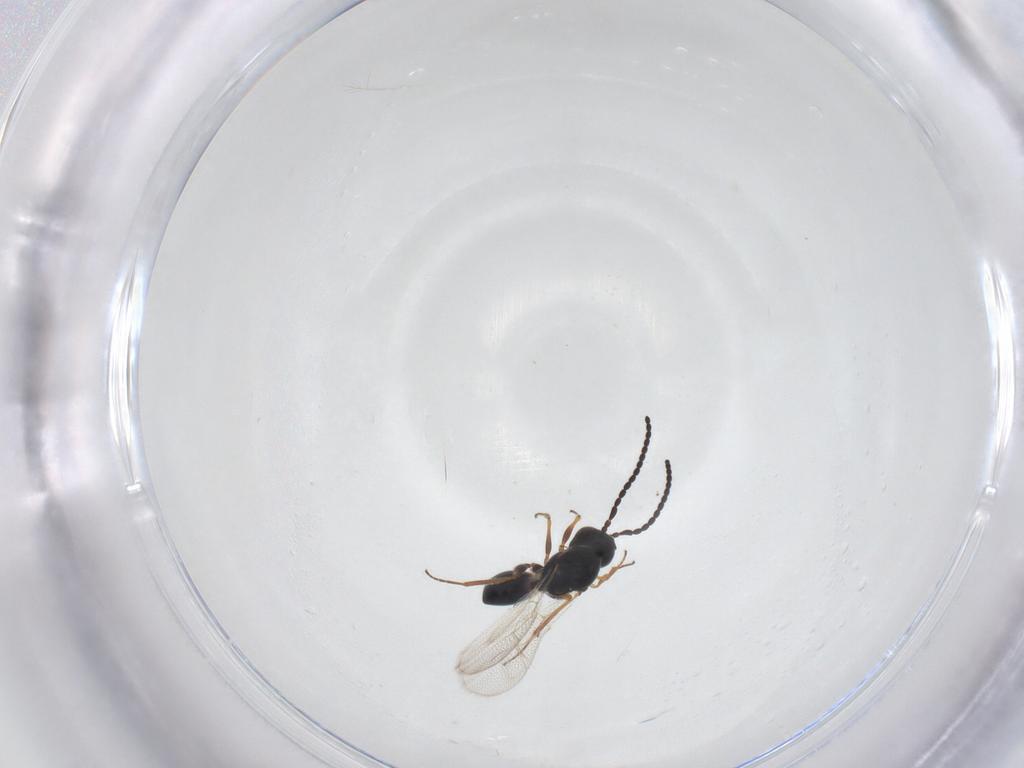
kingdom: Animalia
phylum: Arthropoda
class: Insecta
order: Hymenoptera
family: Figitidae
